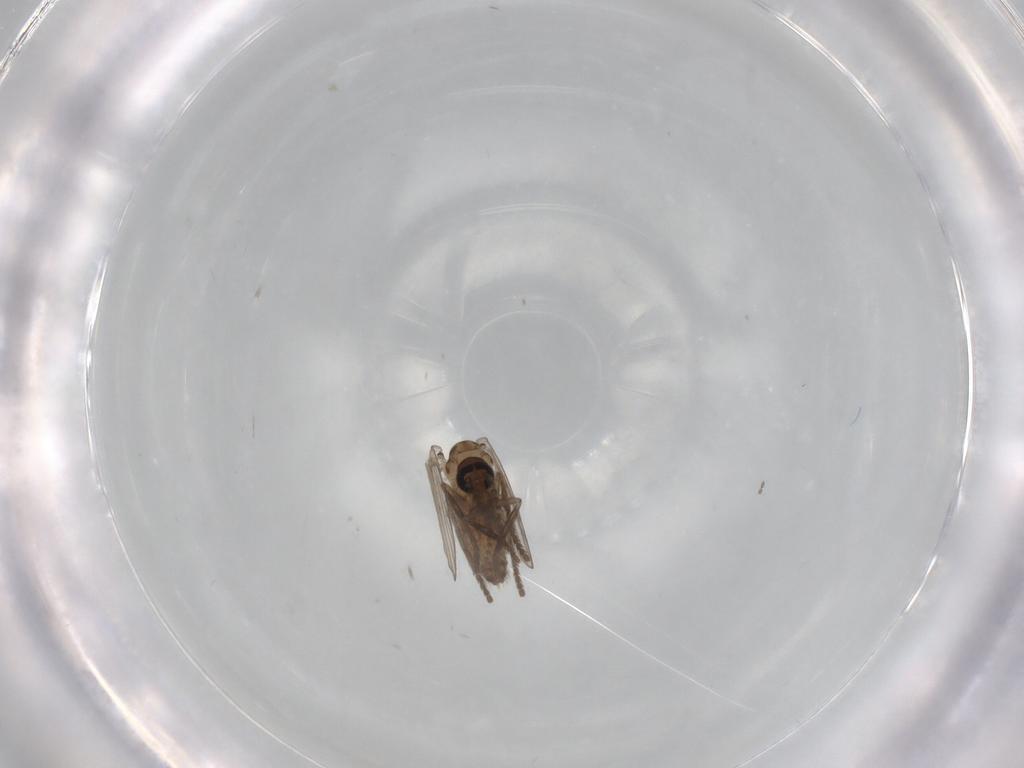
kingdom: Animalia
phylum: Arthropoda
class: Insecta
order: Diptera
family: Psychodidae
